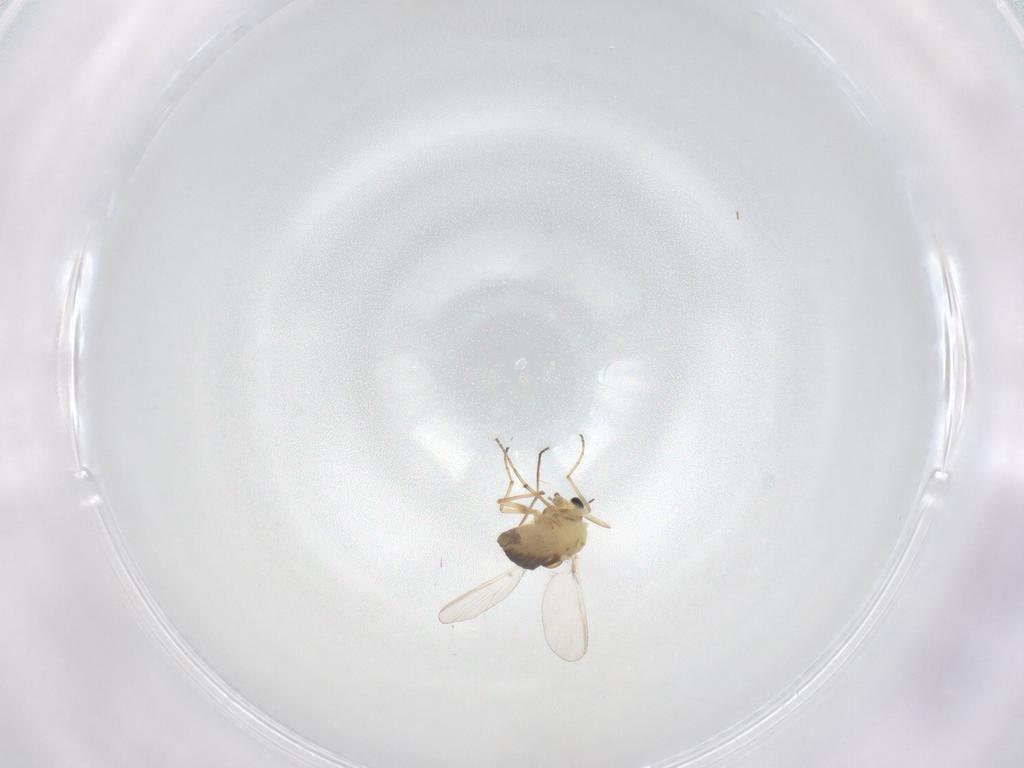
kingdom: Animalia
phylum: Arthropoda
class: Insecta
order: Diptera
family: Chironomidae
